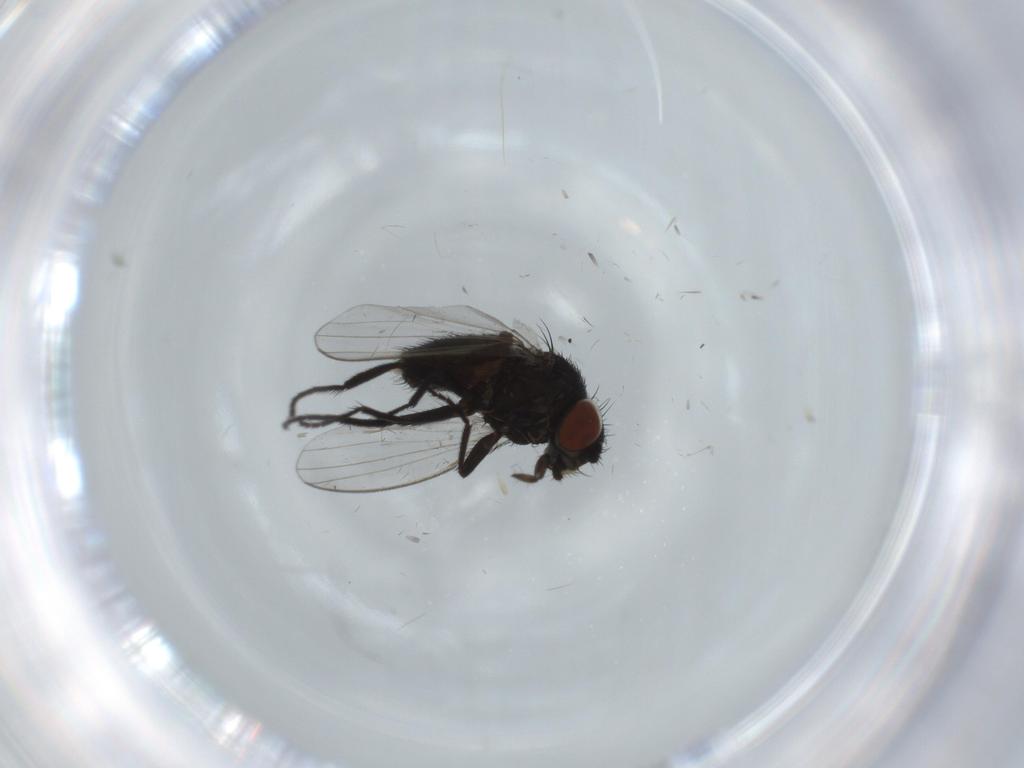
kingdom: Animalia
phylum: Arthropoda
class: Insecta
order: Diptera
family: Milichiidae
